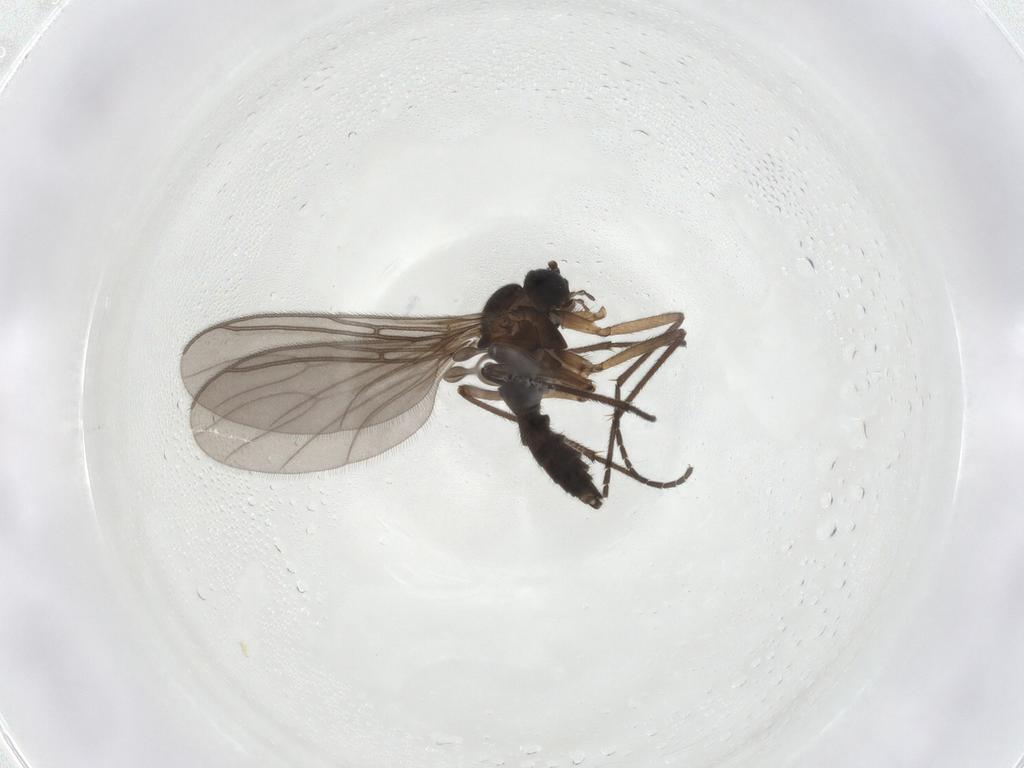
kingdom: Animalia
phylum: Arthropoda
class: Insecta
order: Diptera
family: Sciaridae
